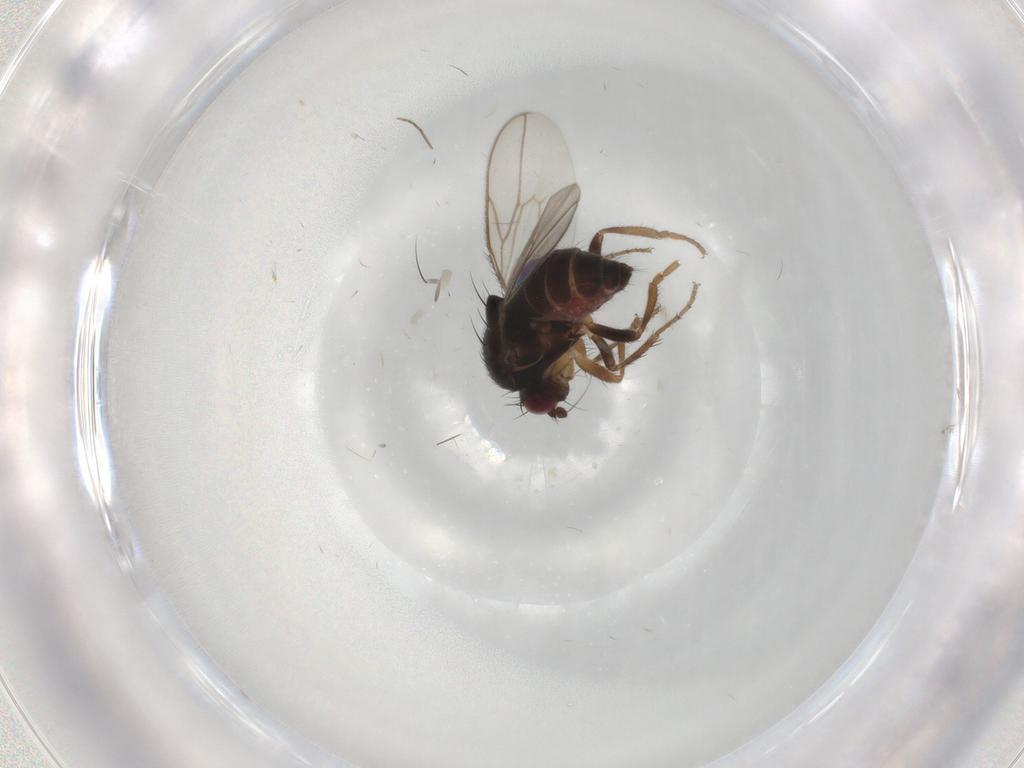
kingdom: Animalia
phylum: Arthropoda
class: Insecta
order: Diptera
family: Sphaeroceridae
